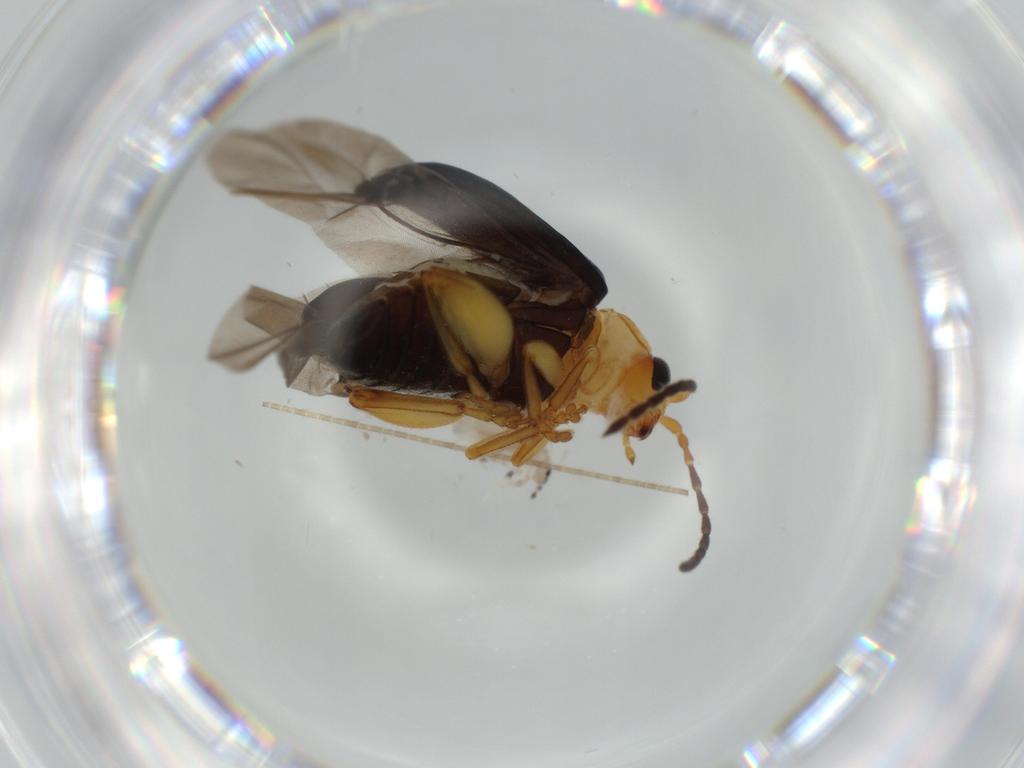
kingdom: Animalia
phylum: Arthropoda
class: Insecta
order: Coleoptera
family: Chrysomelidae
